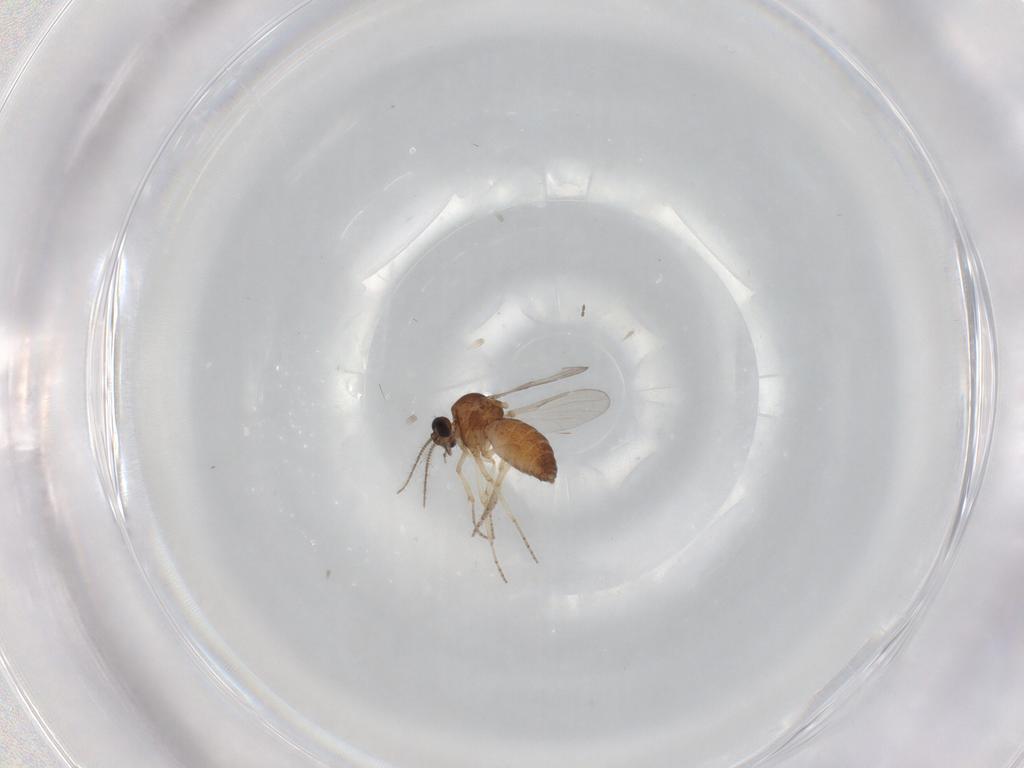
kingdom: Animalia
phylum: Arthropoda
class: Insecta
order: Diptera
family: Ceratopogonidae
